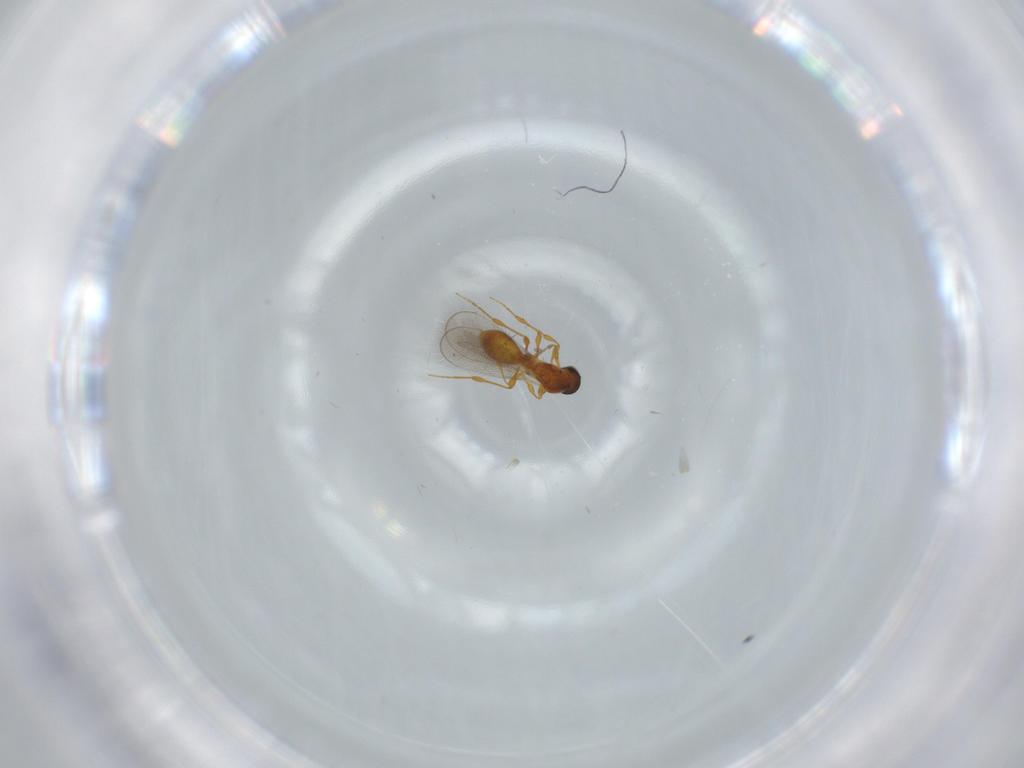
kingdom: Animalia
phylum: Arthropoda
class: Insecta
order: Hymenoptera
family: Platygastridae
